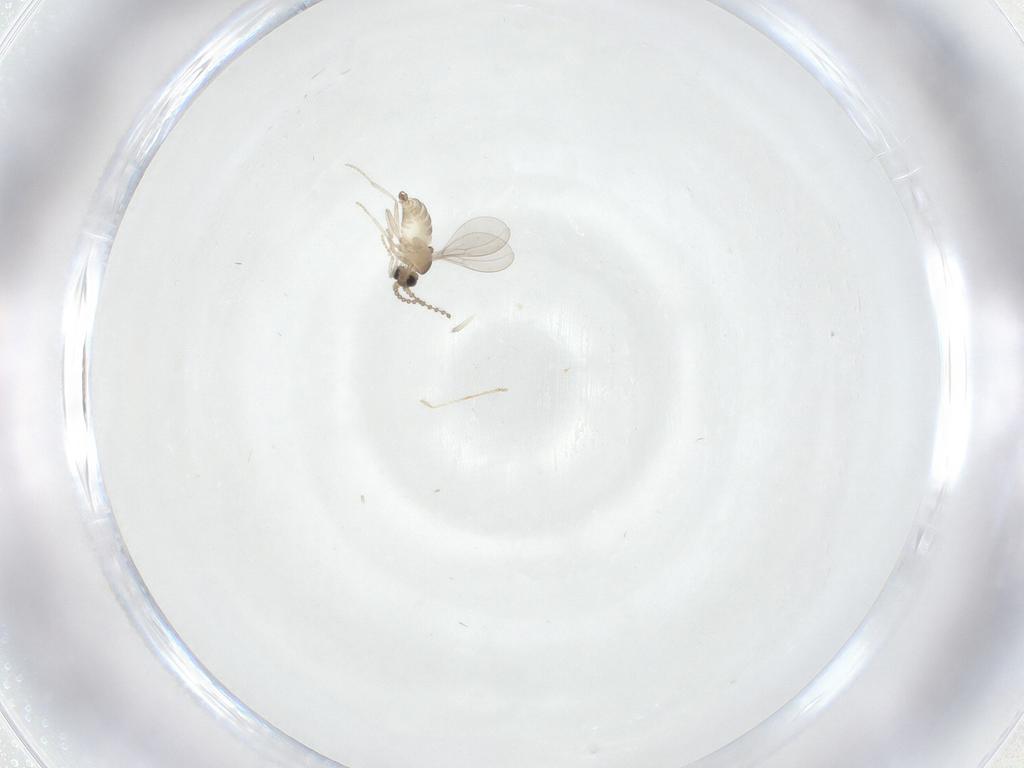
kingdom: Animalia
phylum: Arthropoda
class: Insecta
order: Diptera
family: Cecidomyiidae
